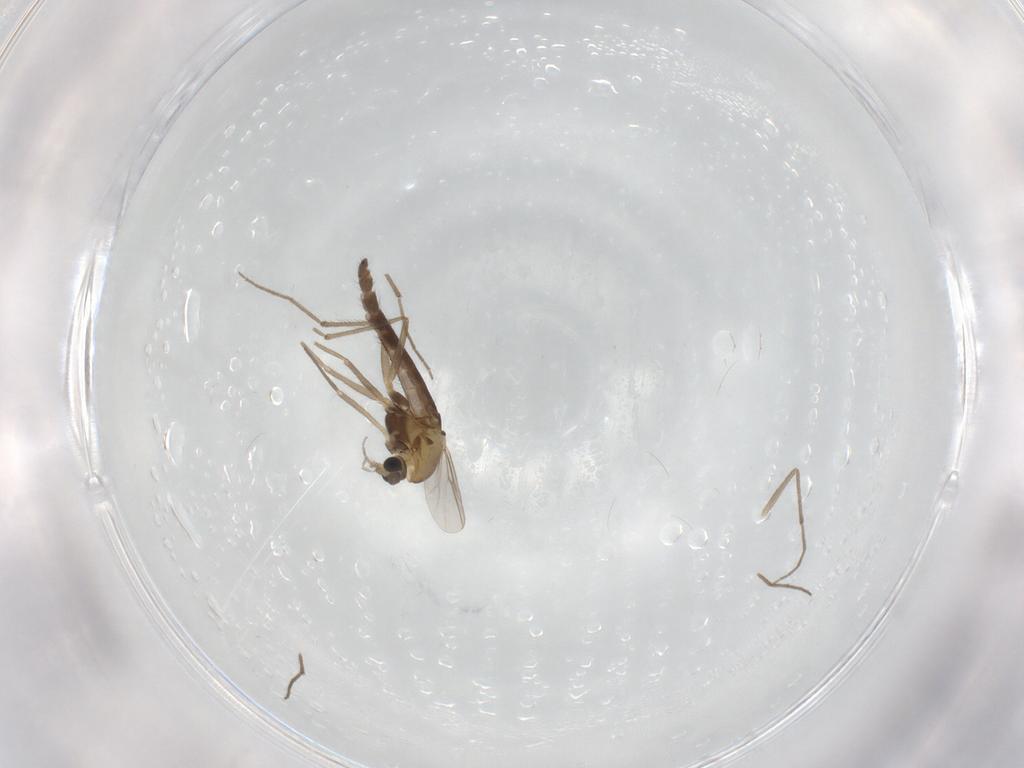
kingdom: Animalia
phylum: Arthropoda
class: Insecta
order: Diptera
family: Chironomidae
